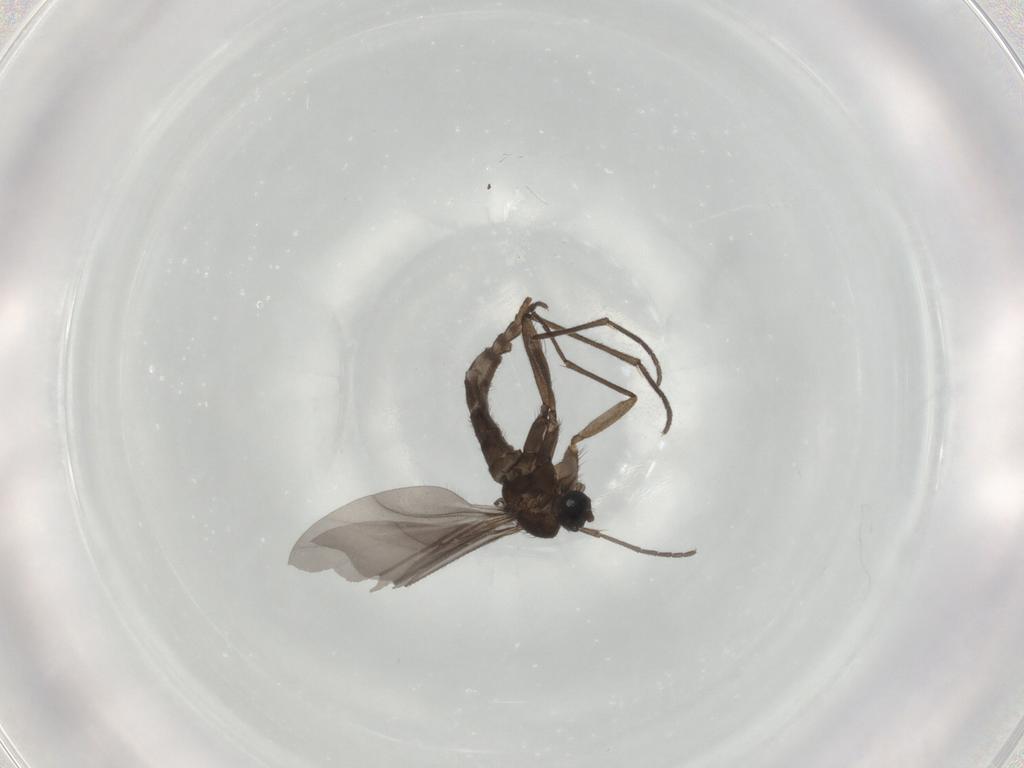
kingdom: Animalia
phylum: Arthropoda
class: Insecta
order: Diptera
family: Sciaridae
